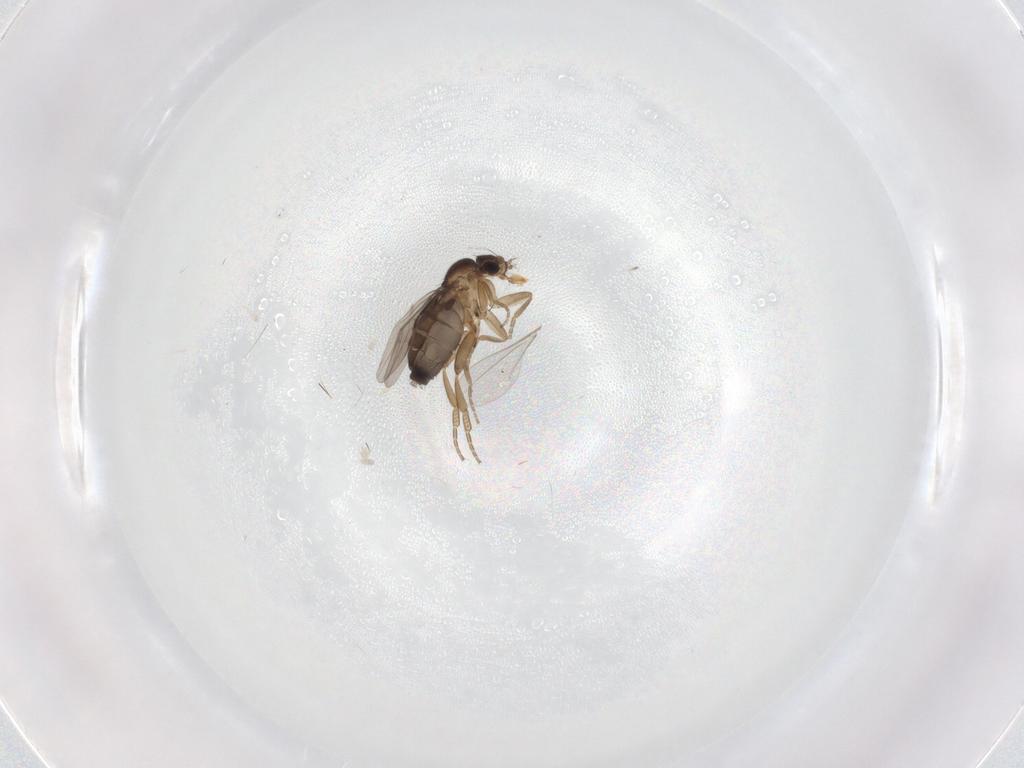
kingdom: Animalia
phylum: Arthropoda
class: Insecta
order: Diptera
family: Phoridae
